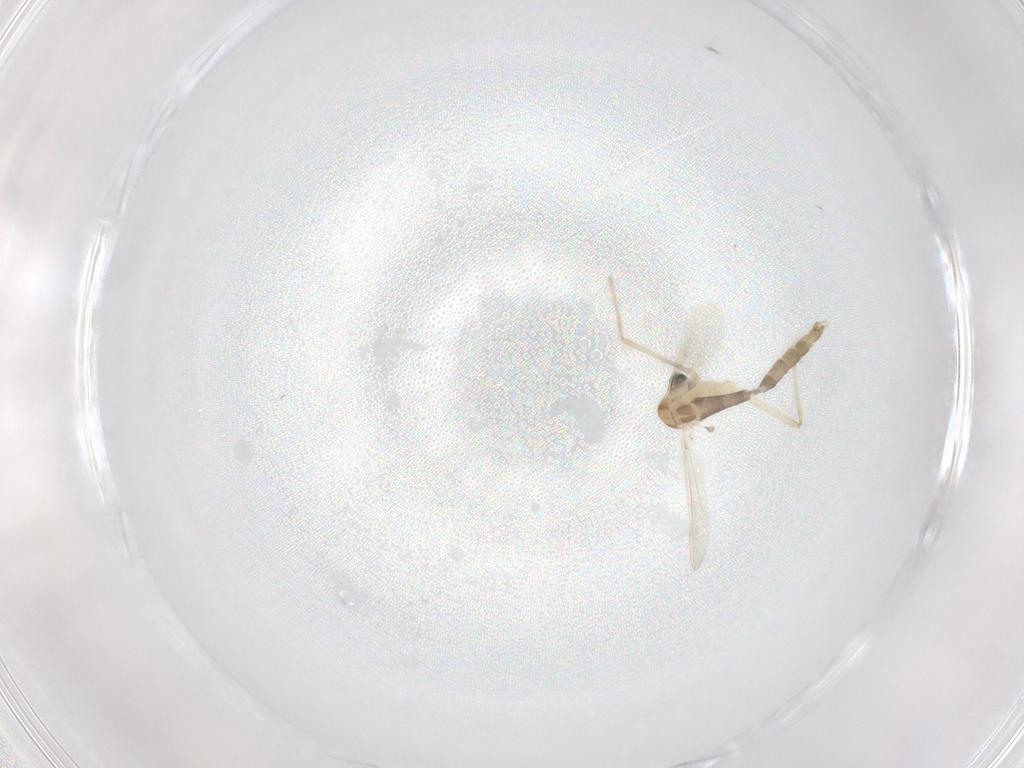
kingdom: Animalia
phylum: Arthropoda
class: Insecta
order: Diptera
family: Chironomidae
